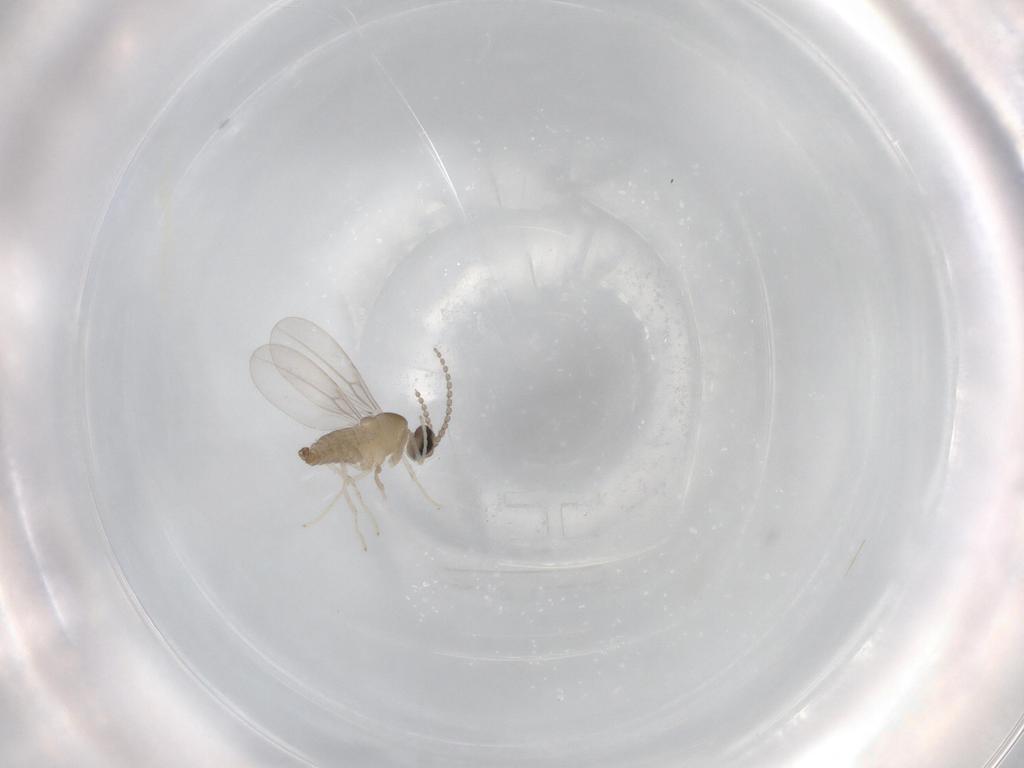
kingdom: Animalia
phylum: Arthropoda
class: Insecta
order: Diptera
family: Cecidomyiidae
